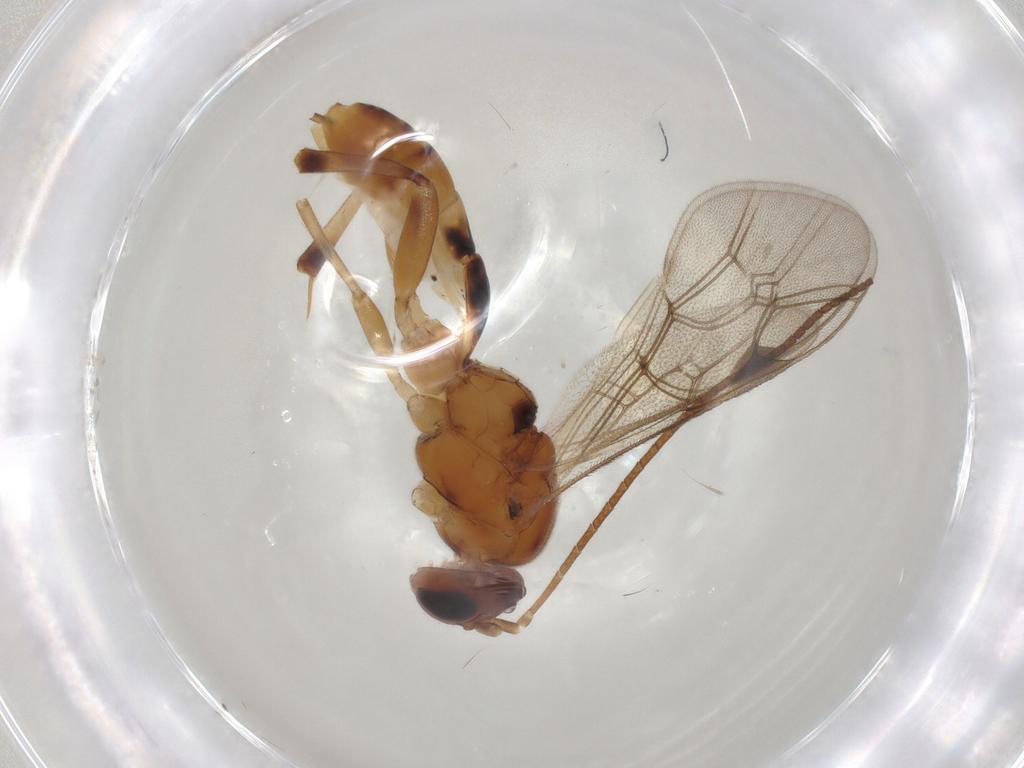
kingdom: Animalia
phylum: Arthropoda
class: Insecta
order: Hymenoptera
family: Ichneumonidae
